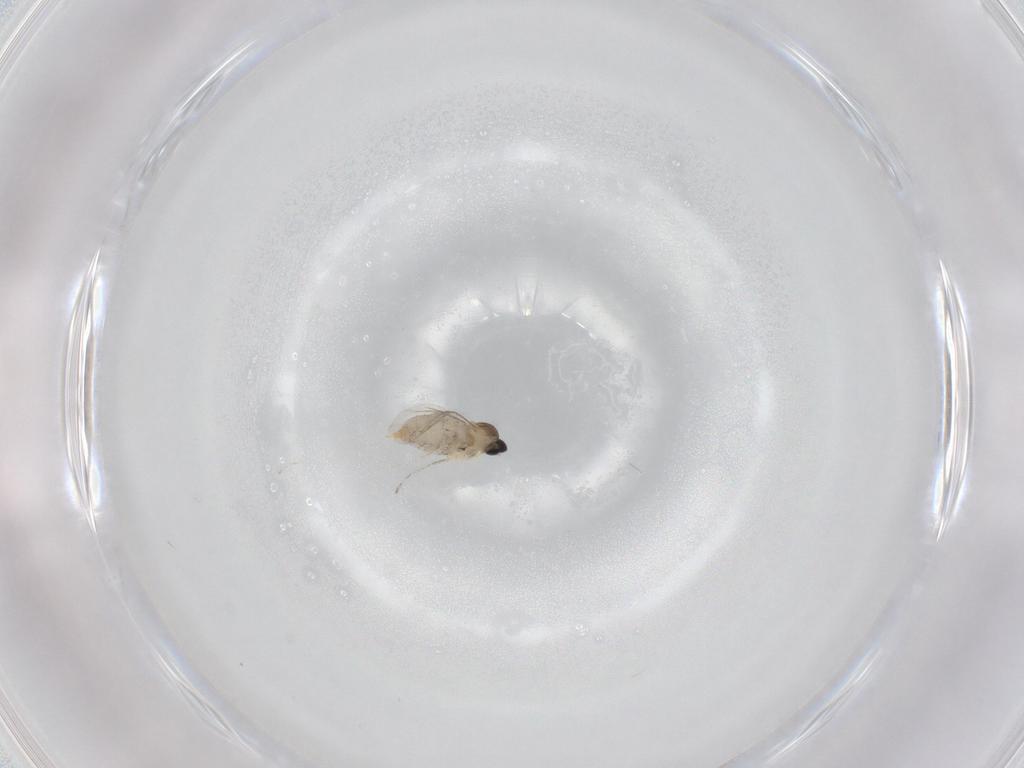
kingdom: Animalia
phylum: Arthropoda
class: Insecta
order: Diptera
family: Cecidomyiidae
